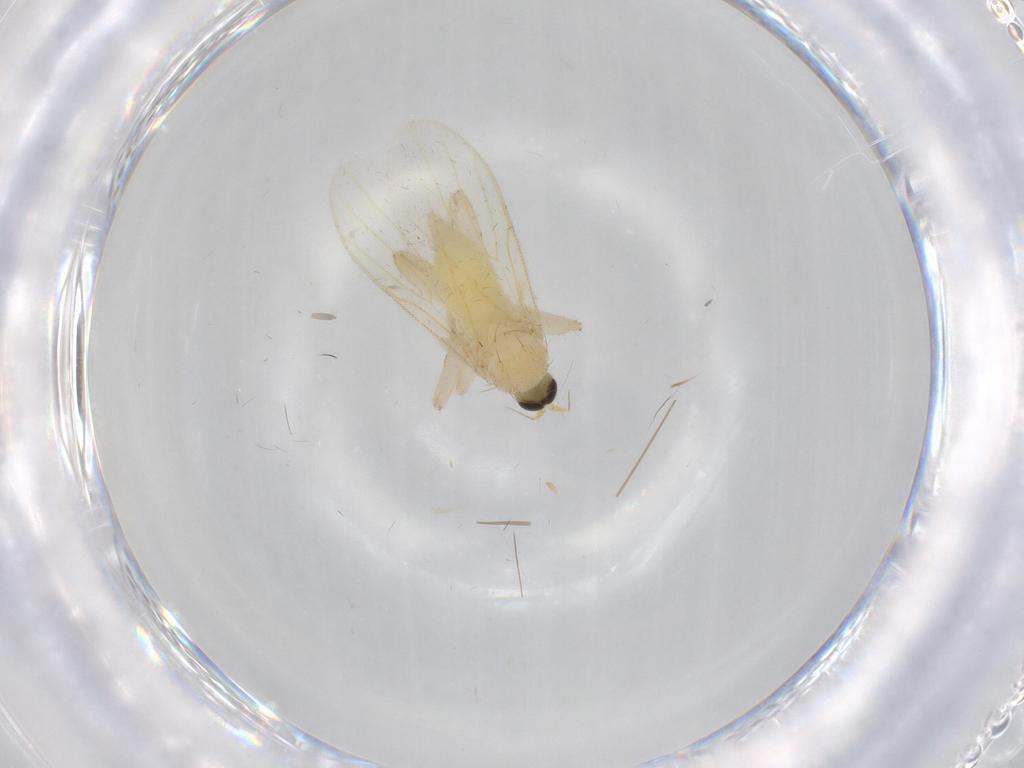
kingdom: Animalia
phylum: Arthropoda
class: Insecta
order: Diptera
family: Hybotidae
